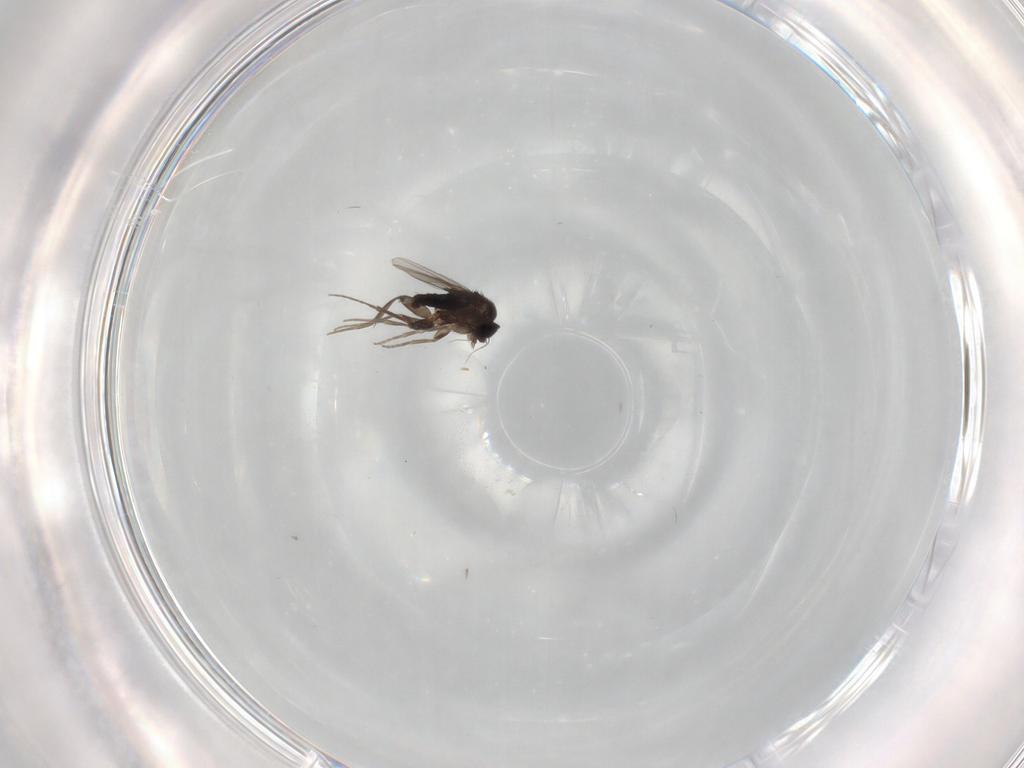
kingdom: Animalia
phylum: Arthropoda
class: Insecta
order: Diptera
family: Phoridae
